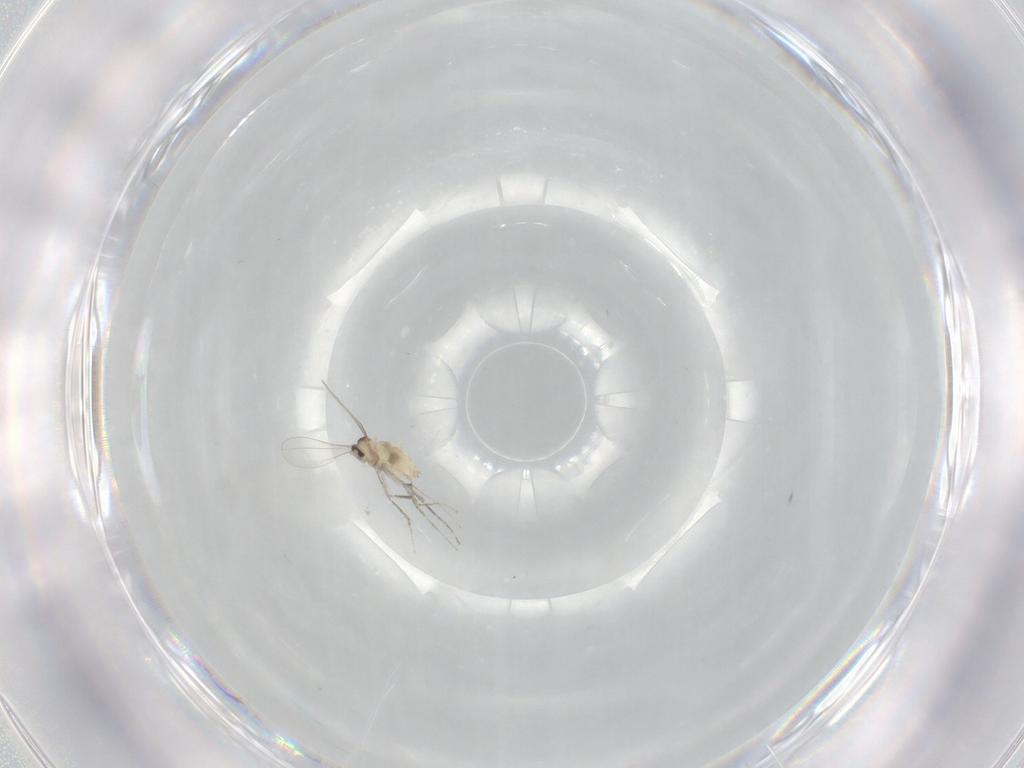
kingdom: Animalia
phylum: Arthropoda
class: Insecta
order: Diptera
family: Cecidomyiidae
